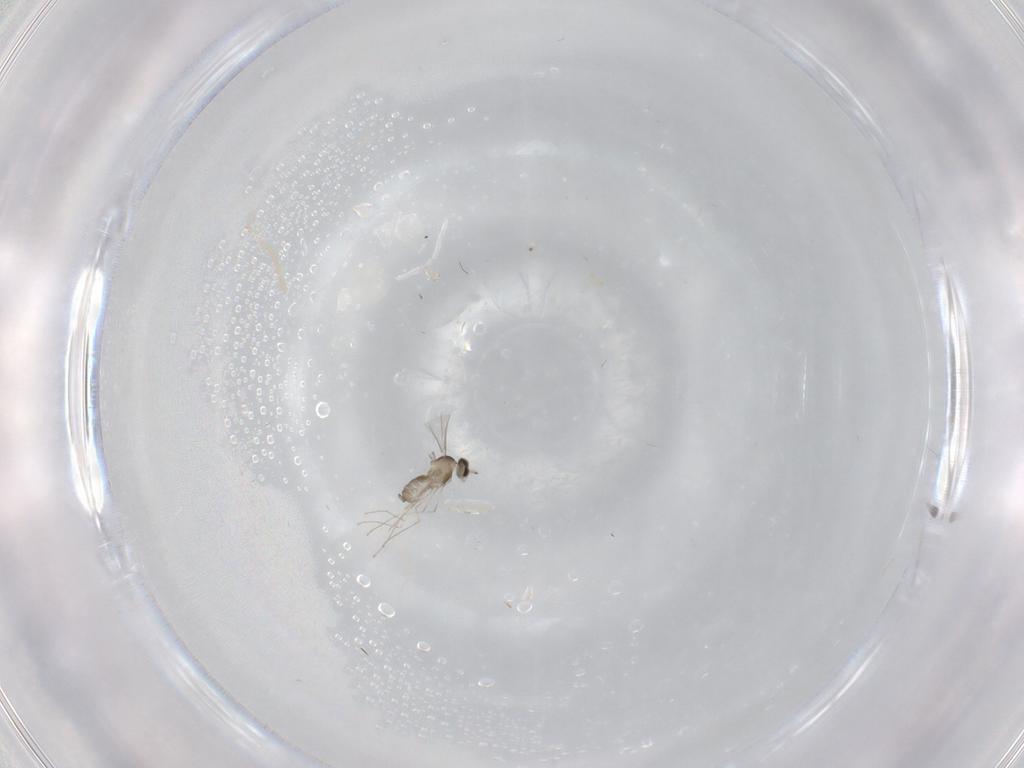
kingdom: Animalia
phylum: Arthropoda
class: Insecta
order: Diptera
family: Cecidomyiidae
